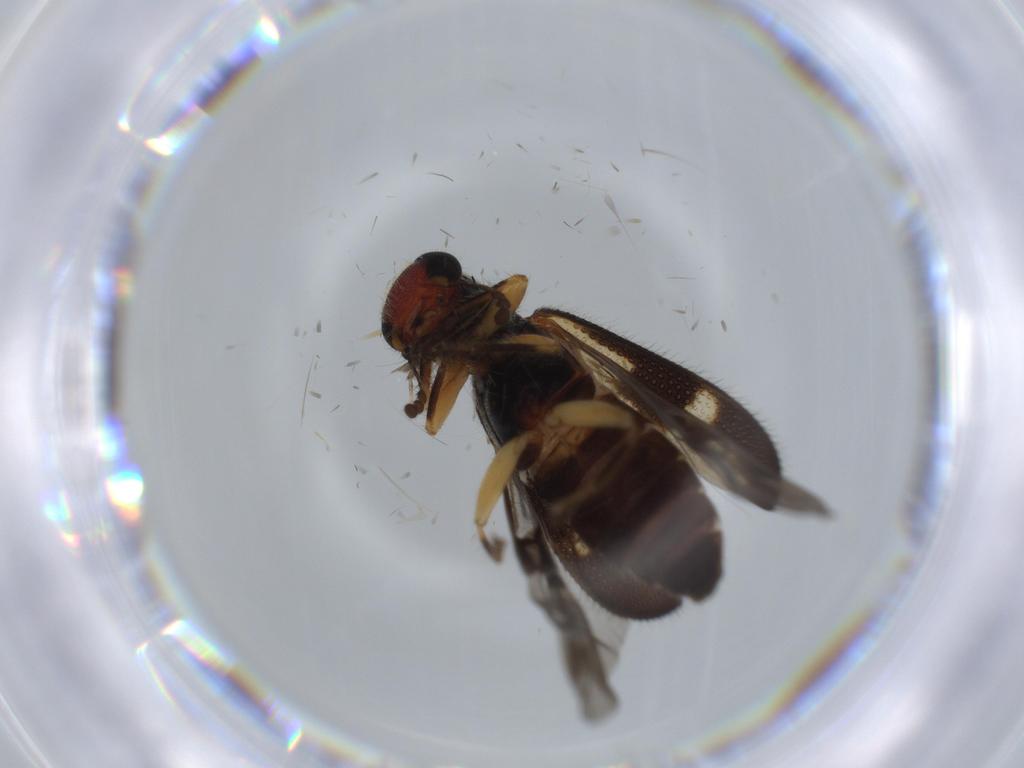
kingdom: Animalia
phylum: Arthropoda
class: Insecta
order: Coleoptera
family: Cleridae
